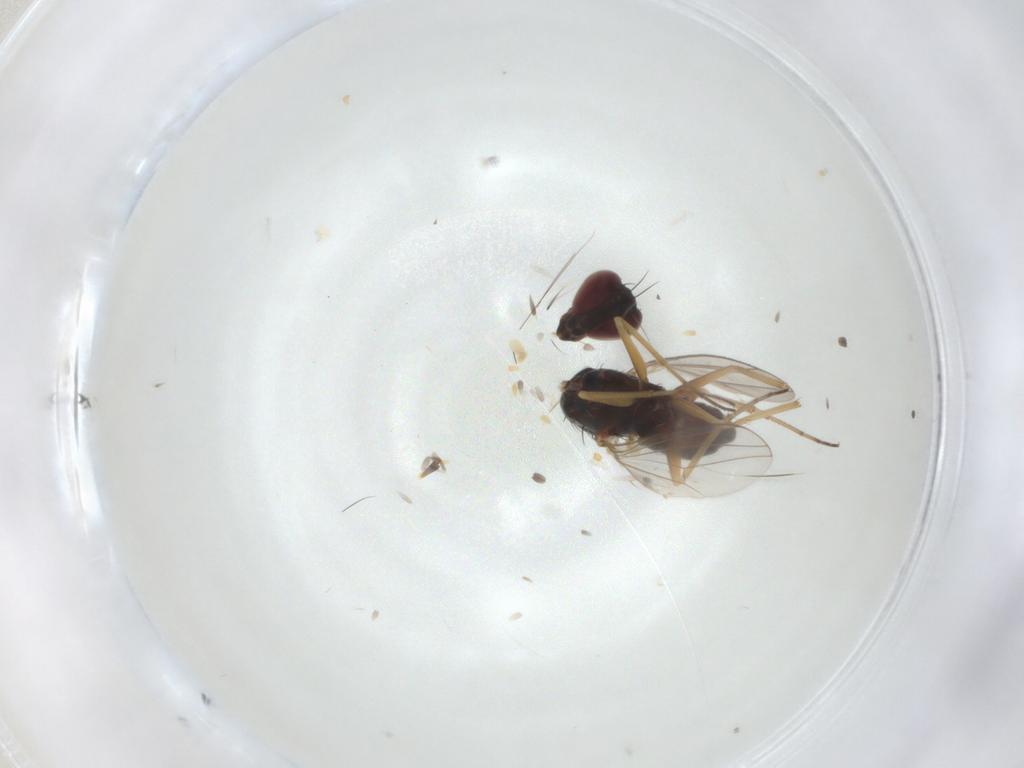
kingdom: Animalia
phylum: Arthropoda
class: Insecta
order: Diptera
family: Dolichopodidae
